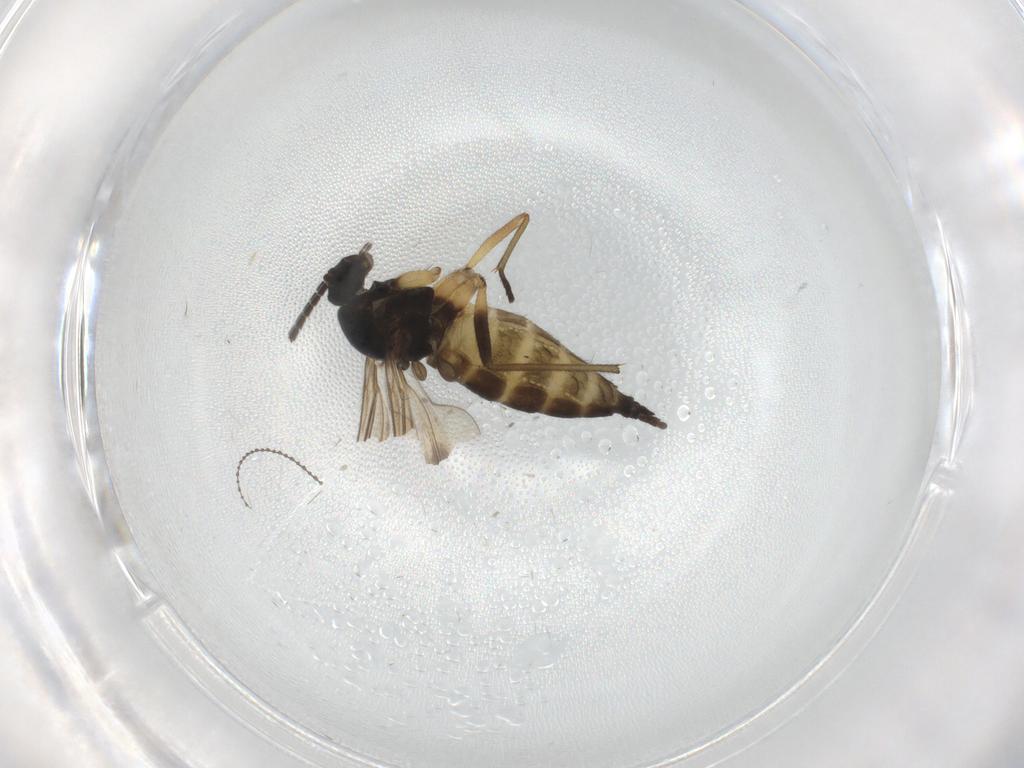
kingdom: Animalia
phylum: Arthropoda
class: Insecta
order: Diptera
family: Sciaridae
